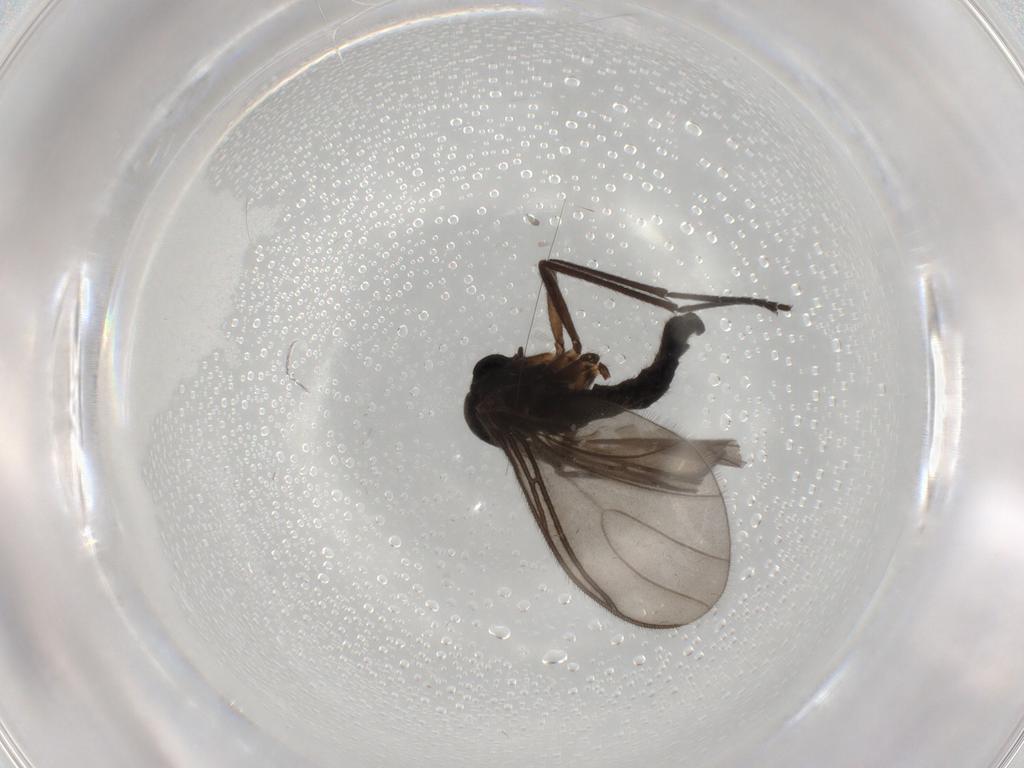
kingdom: Animalia
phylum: Arthropoda
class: Insecta
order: Diptera
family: Sciaridae
